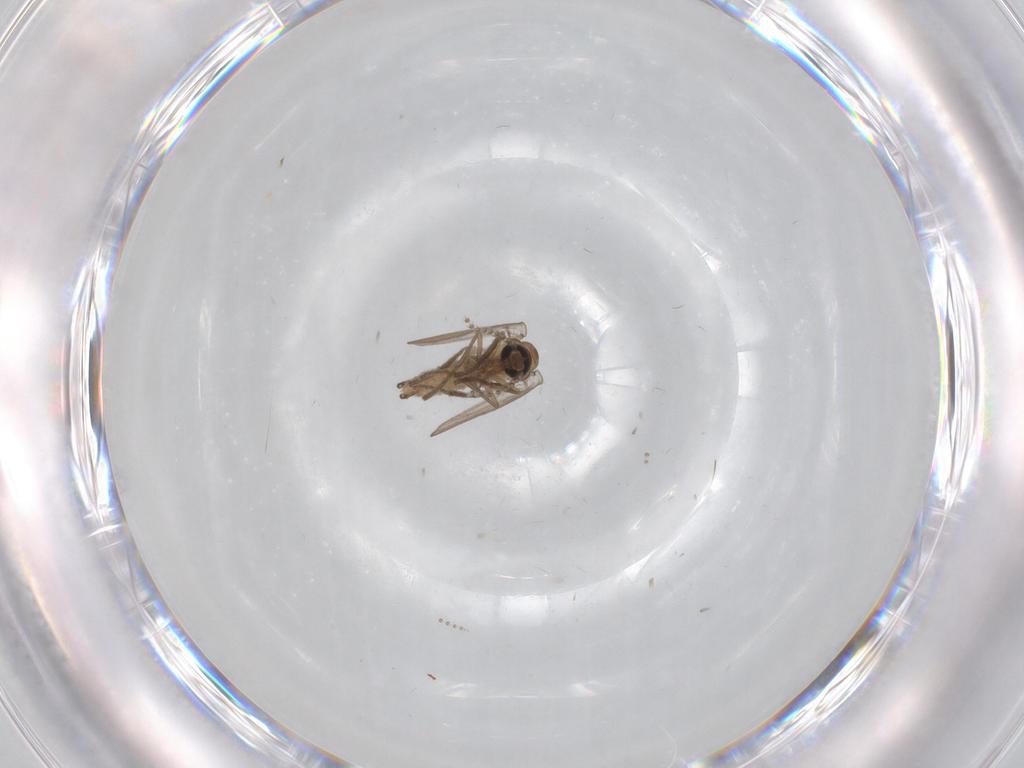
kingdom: Animalia
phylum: Arthropoda
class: Insecta
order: Diptera
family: Psychodidae
